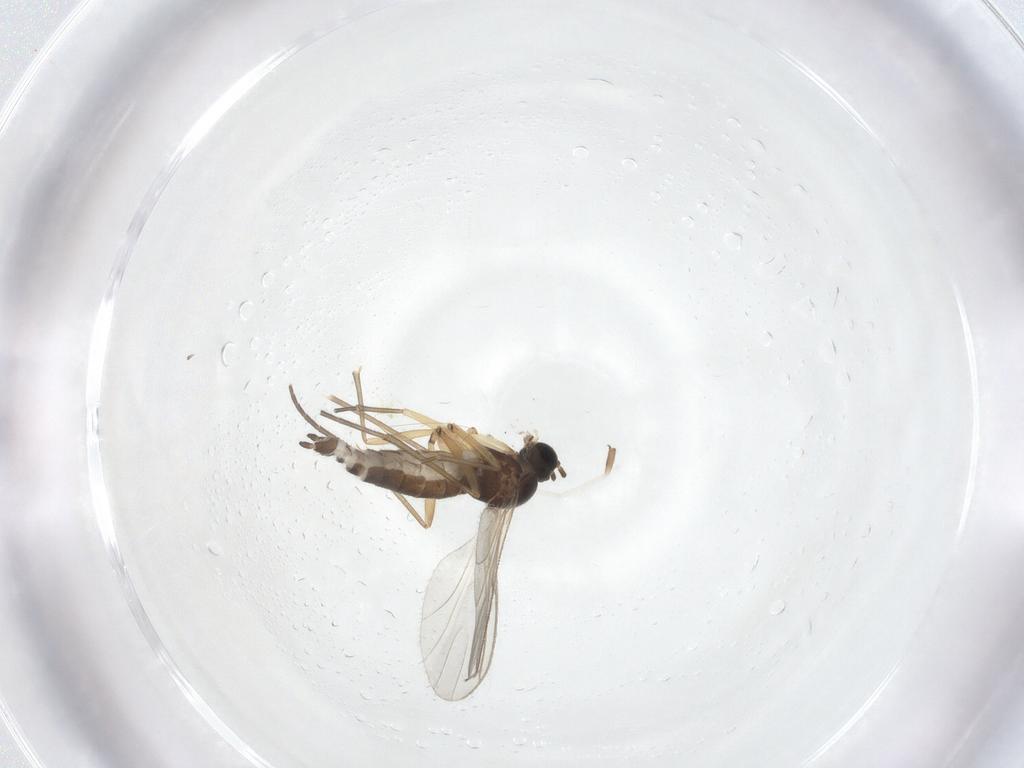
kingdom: Animalia
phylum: Arthropoda
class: Insecta
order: Diptera
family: Sciaridae
